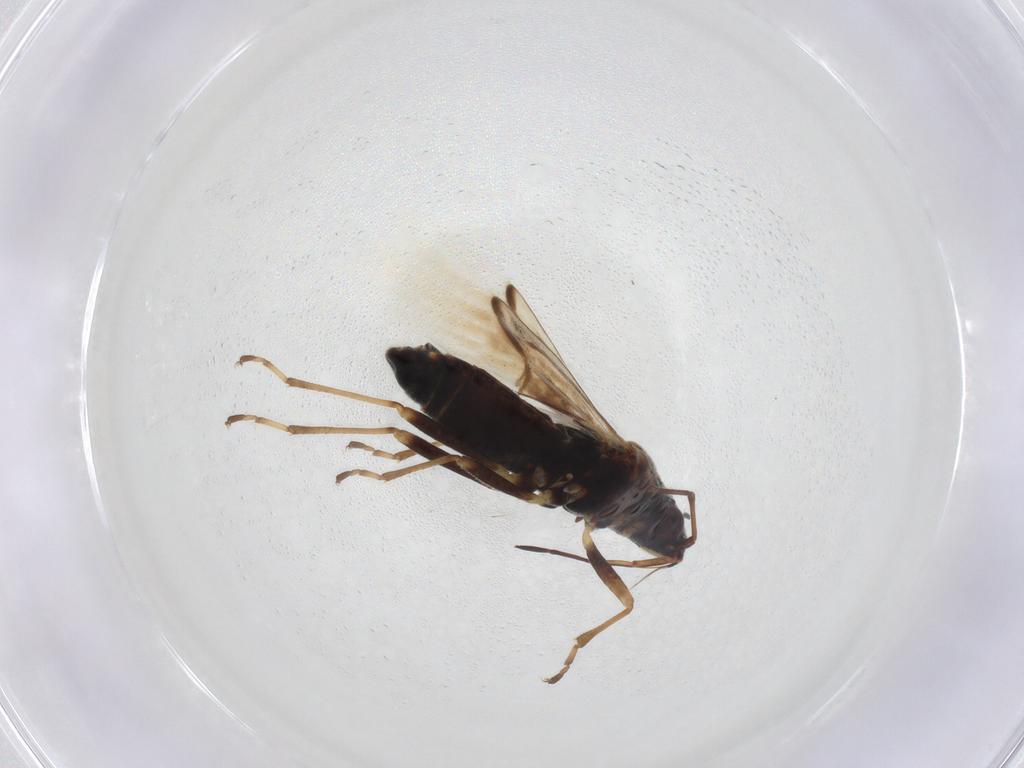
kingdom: Animalia
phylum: Arthropoda
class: Insecta
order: Hemiptera
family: Lygaeidae
